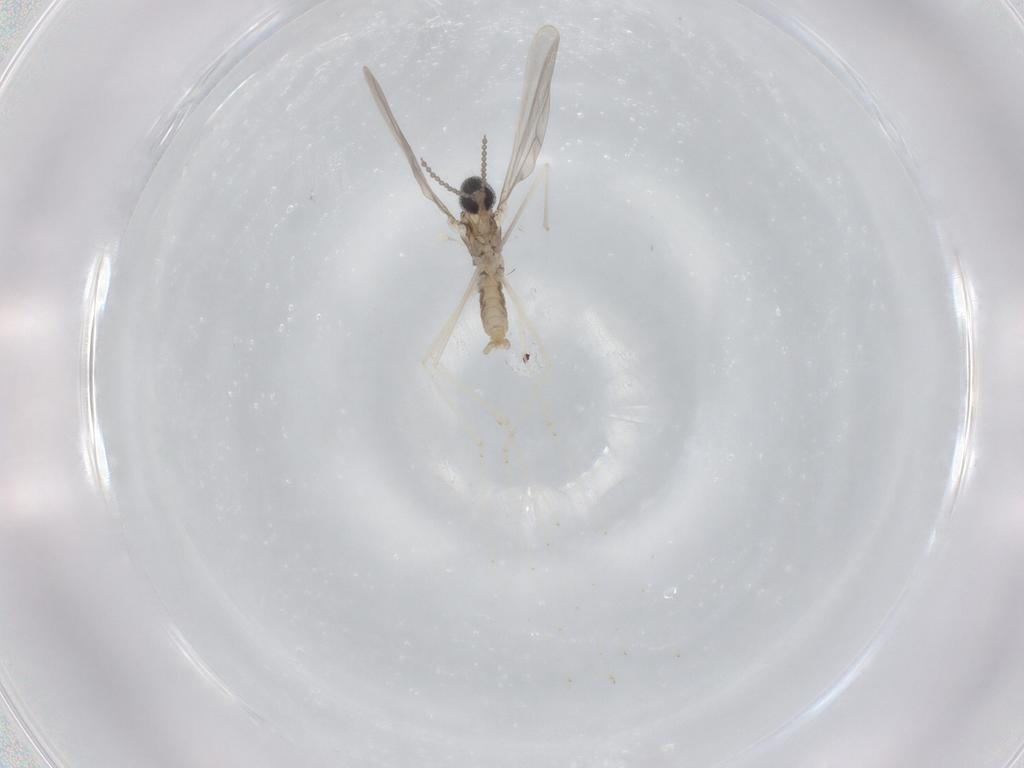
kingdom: Animalia
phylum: Arthropoda
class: Insecta
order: Diptera
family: Cecidomyiidae
